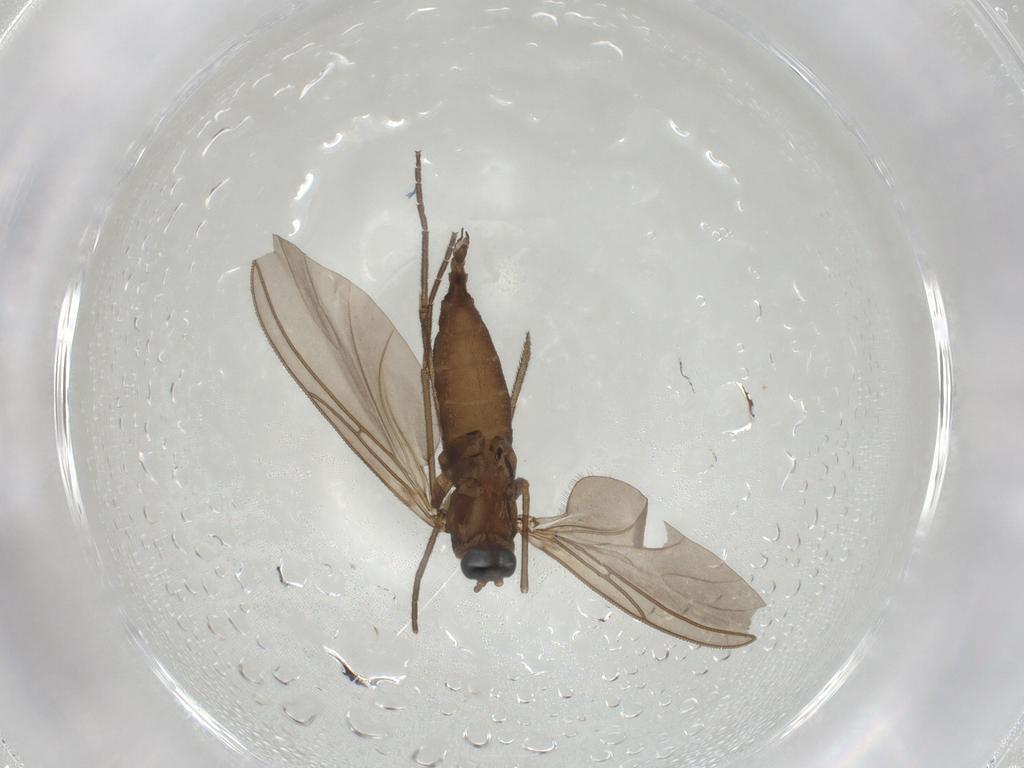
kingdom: Animalia
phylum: Arthropoda
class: Insecta
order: Diptera
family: Sciaridae
